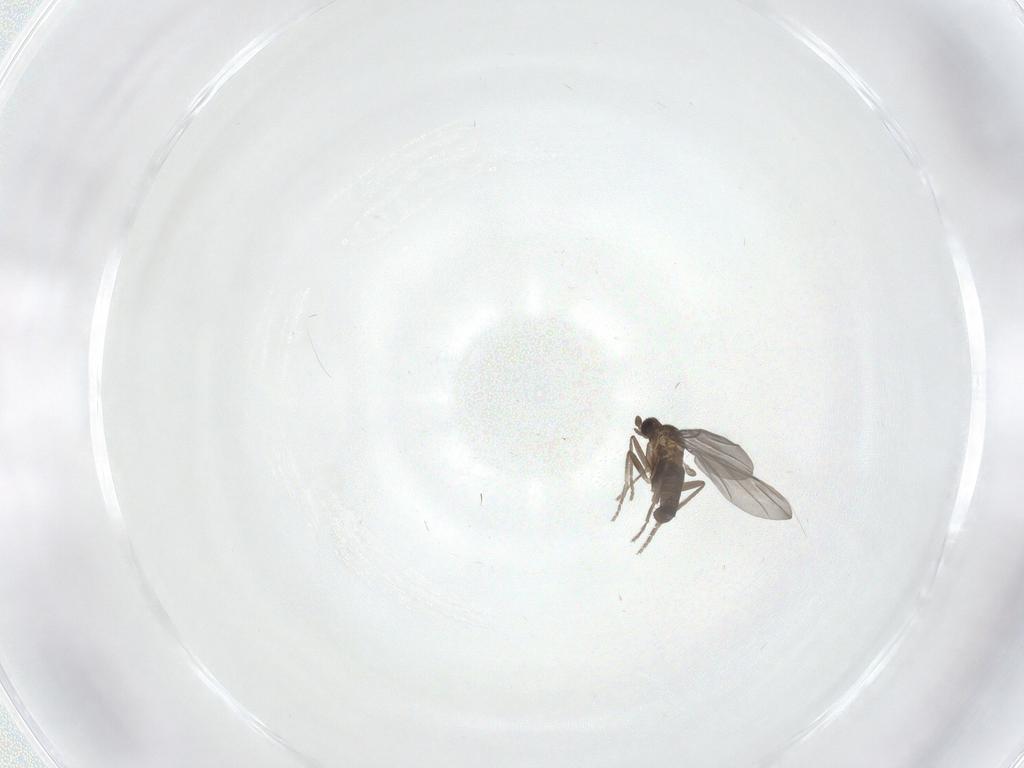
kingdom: Animalia
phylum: Arthropoda
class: Insecta
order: Diptera
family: Phoridae
